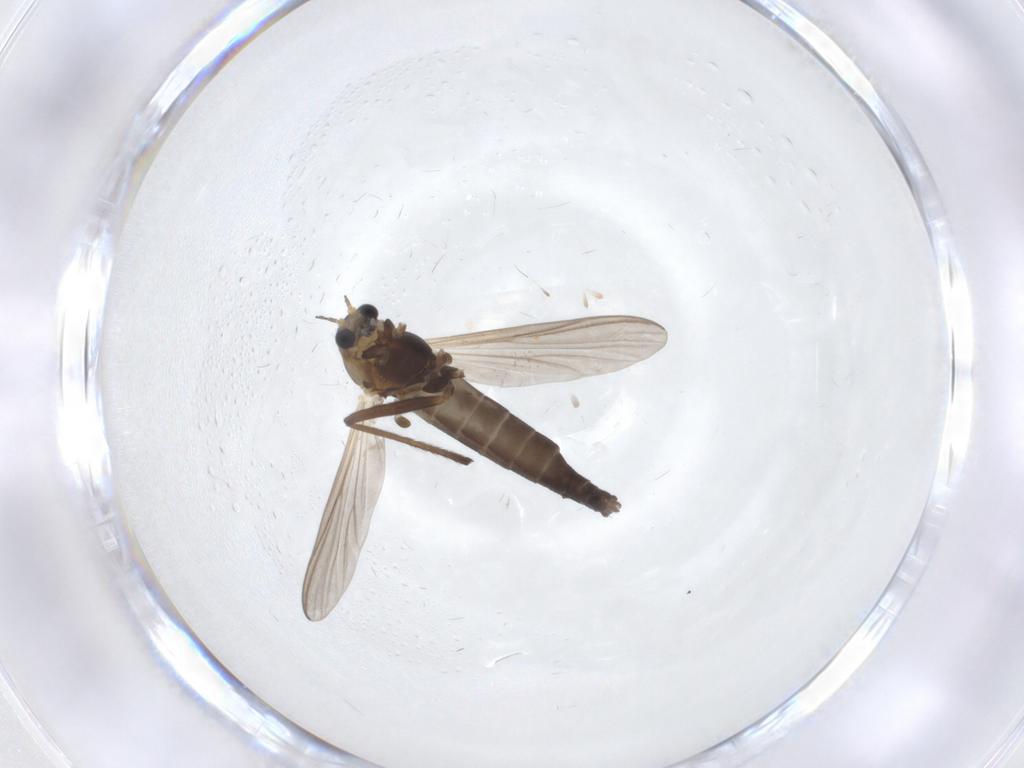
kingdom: Animalia
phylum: Arthropoda
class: Insecta
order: Diptera
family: Chironomidae
